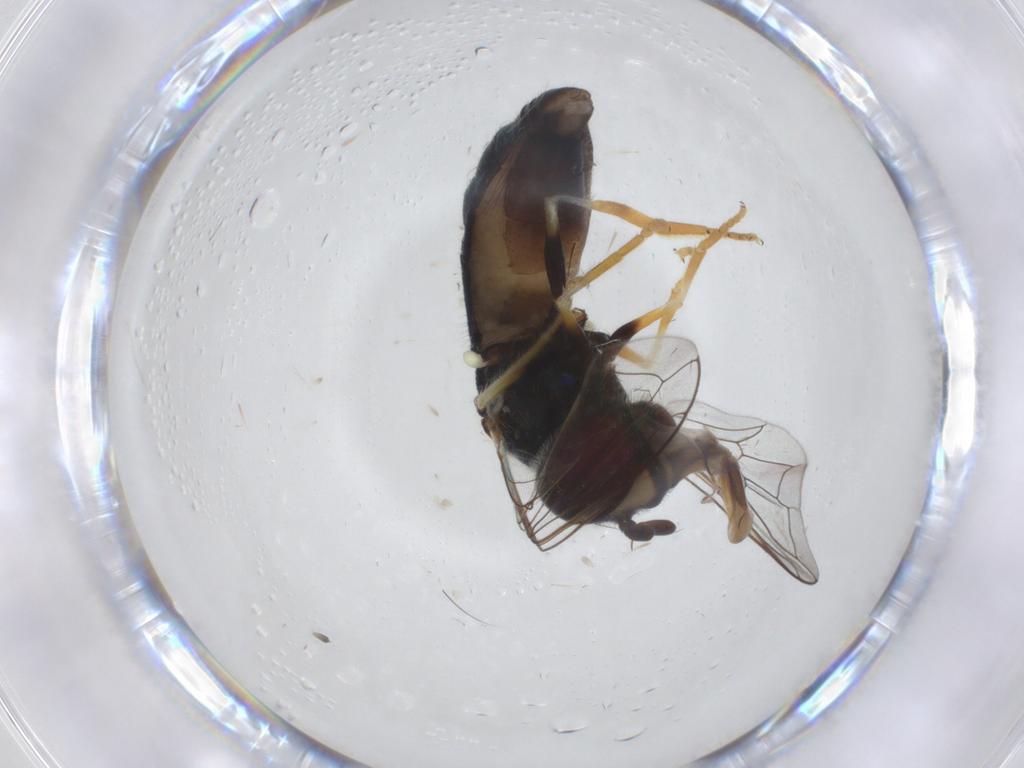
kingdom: Animalia
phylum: Arthropoda
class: Insecta
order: Diptera
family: Syrphidae
